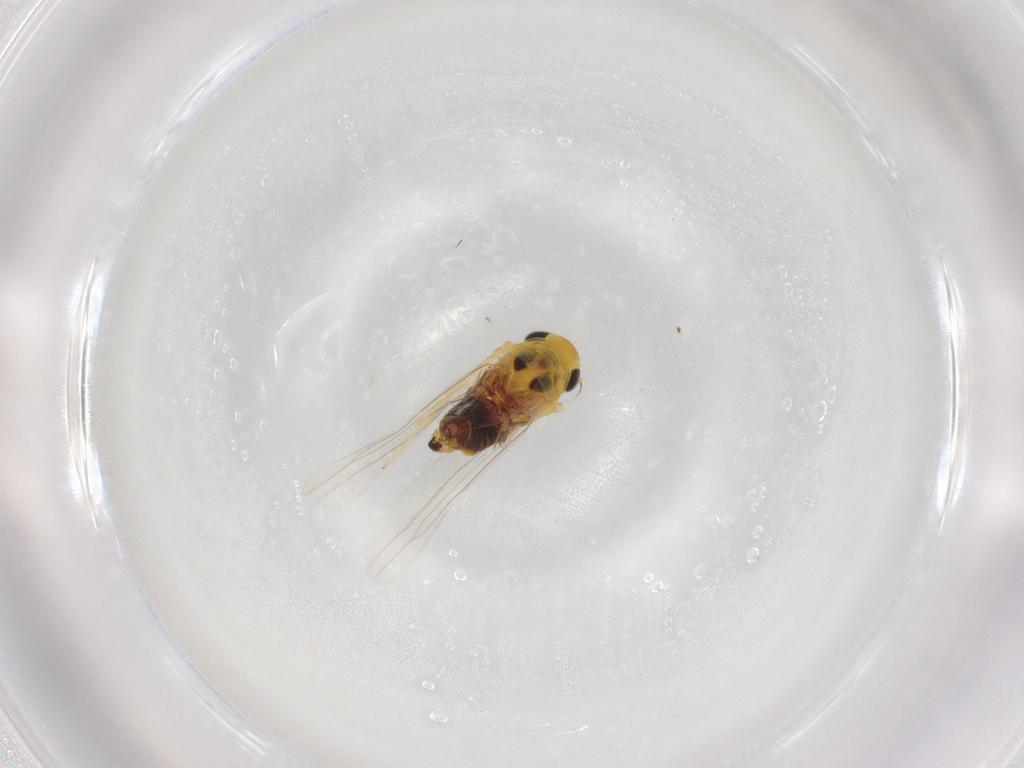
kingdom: Animalia
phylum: Arthropoda
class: Insecta
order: Hemiptera
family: Cicadellidae
